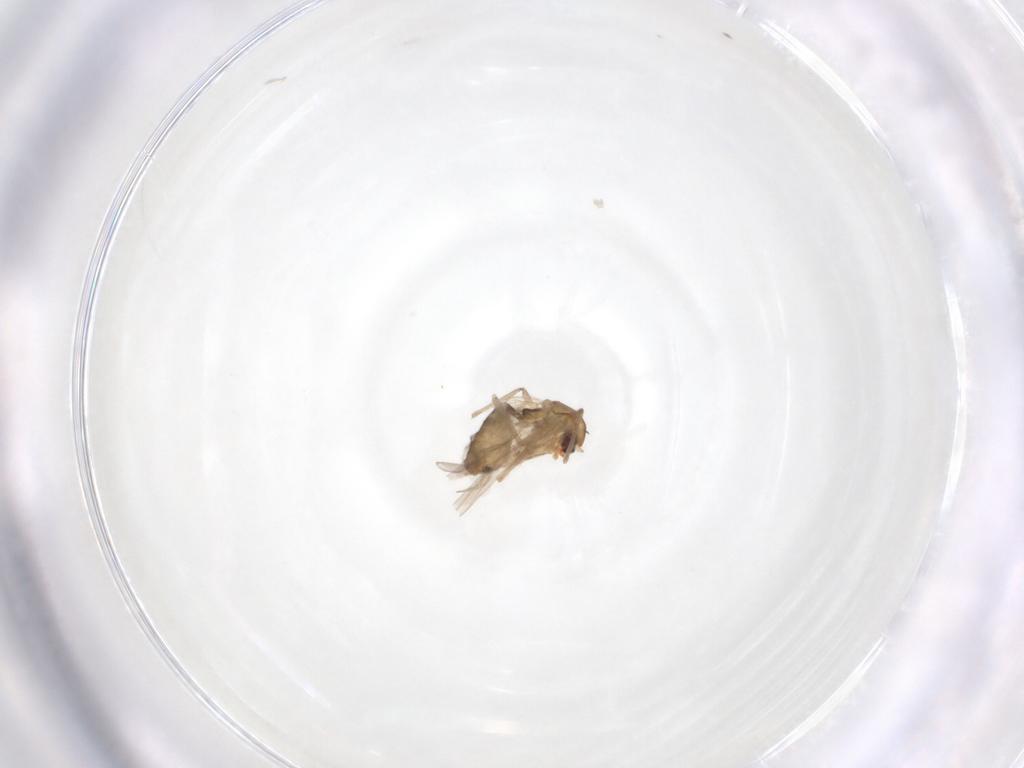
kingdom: Animalia
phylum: Arthropoda
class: Insecta
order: Diptera
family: Chironomidae
